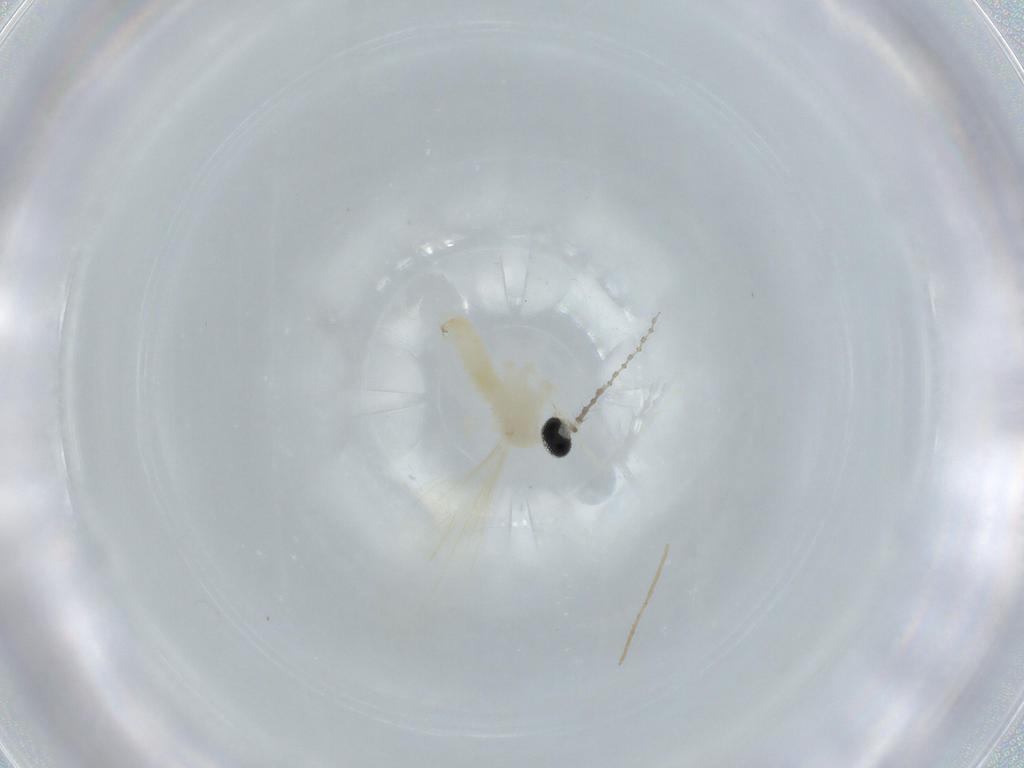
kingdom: Animalia
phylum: Arthropoda
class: Insecta
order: Diptera
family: Cecidomyiidae
